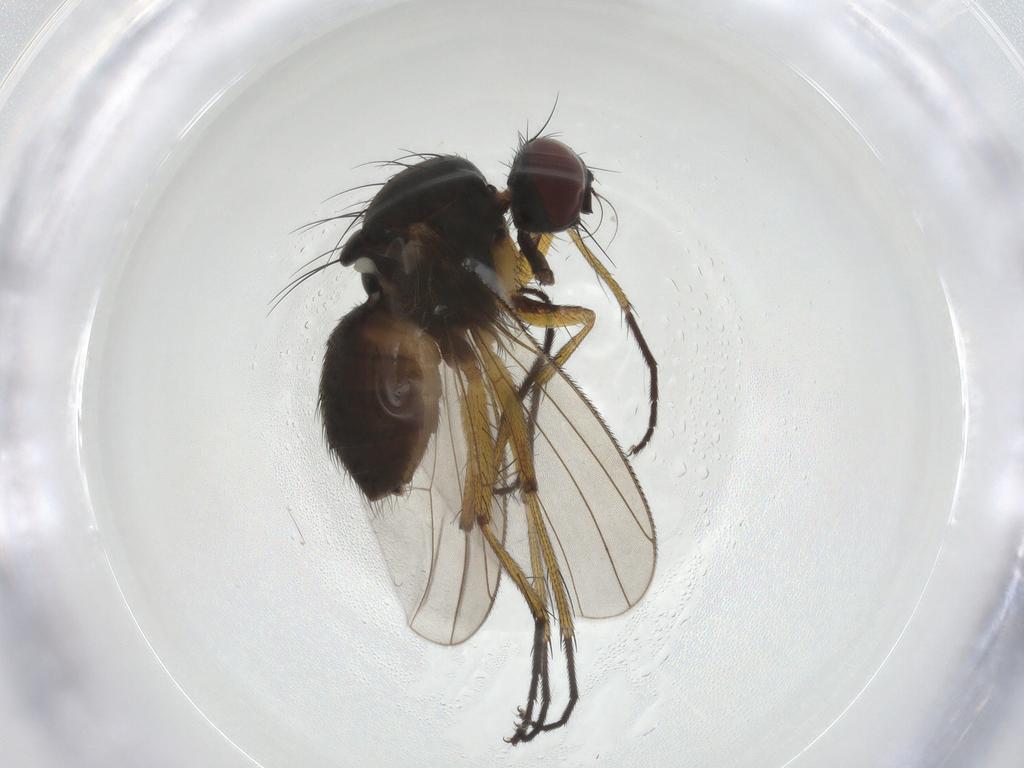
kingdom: Animalia
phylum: Arthropoda
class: Insecta
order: Diptera
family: Muscidae
